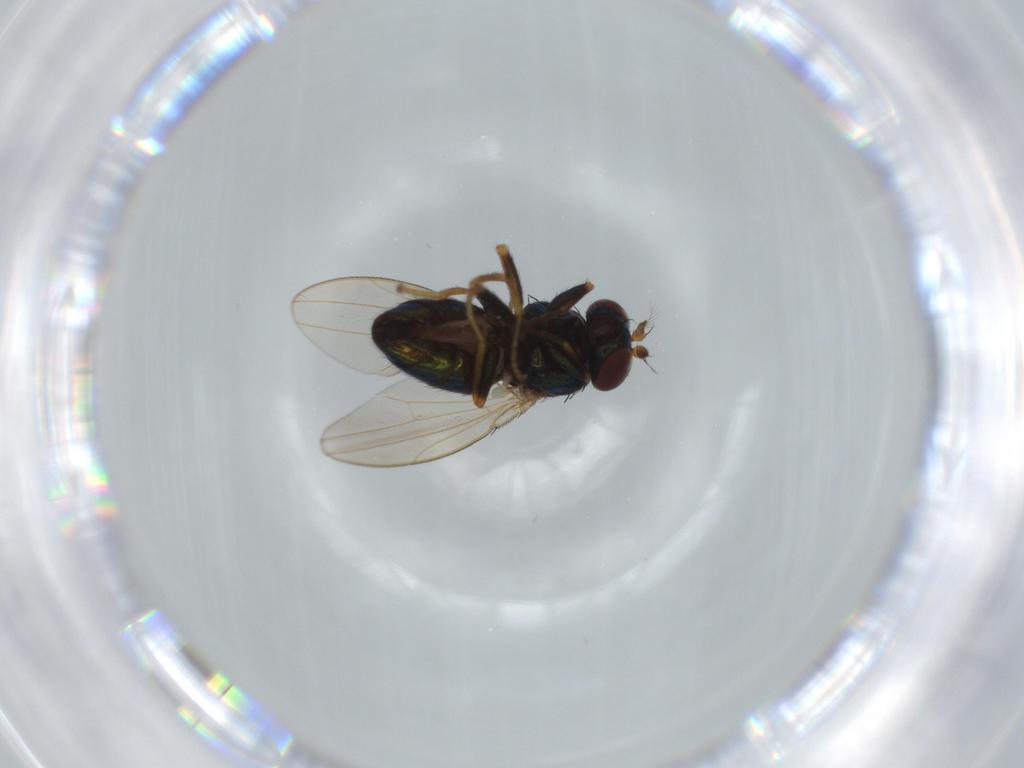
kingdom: Animalia
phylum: Arthropoda
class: Insecta
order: Diptera
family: Ephydridae
